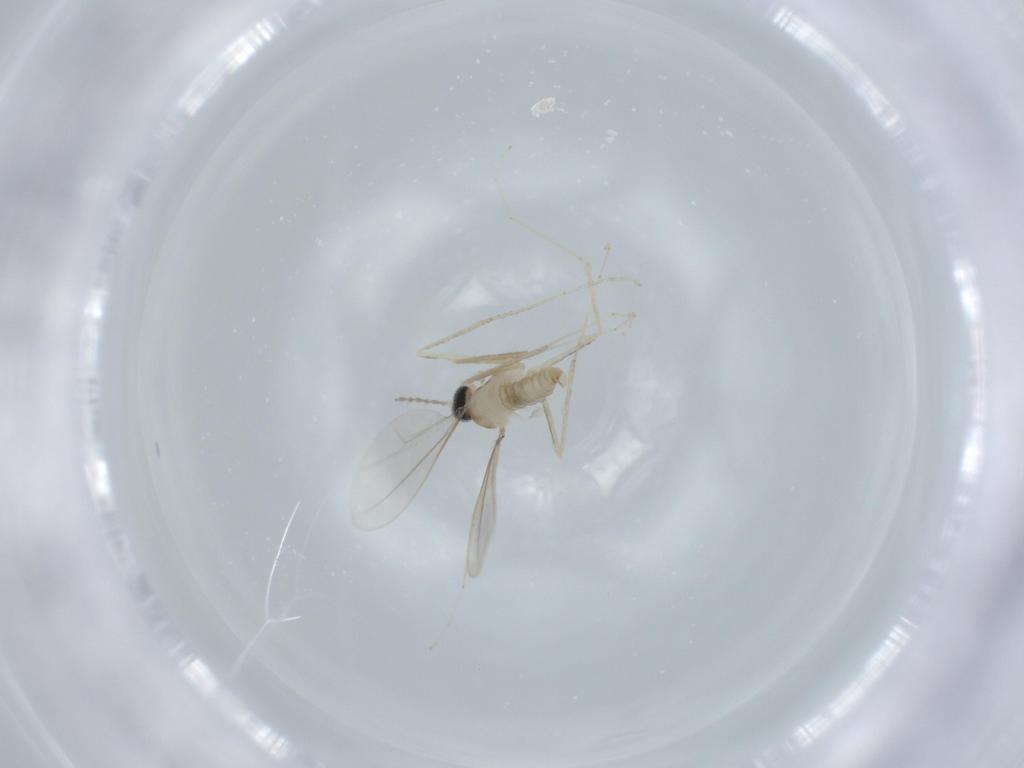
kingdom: Animalia
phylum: Arthropoda
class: Insecta
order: Diptera
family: Cecidomyiidae
